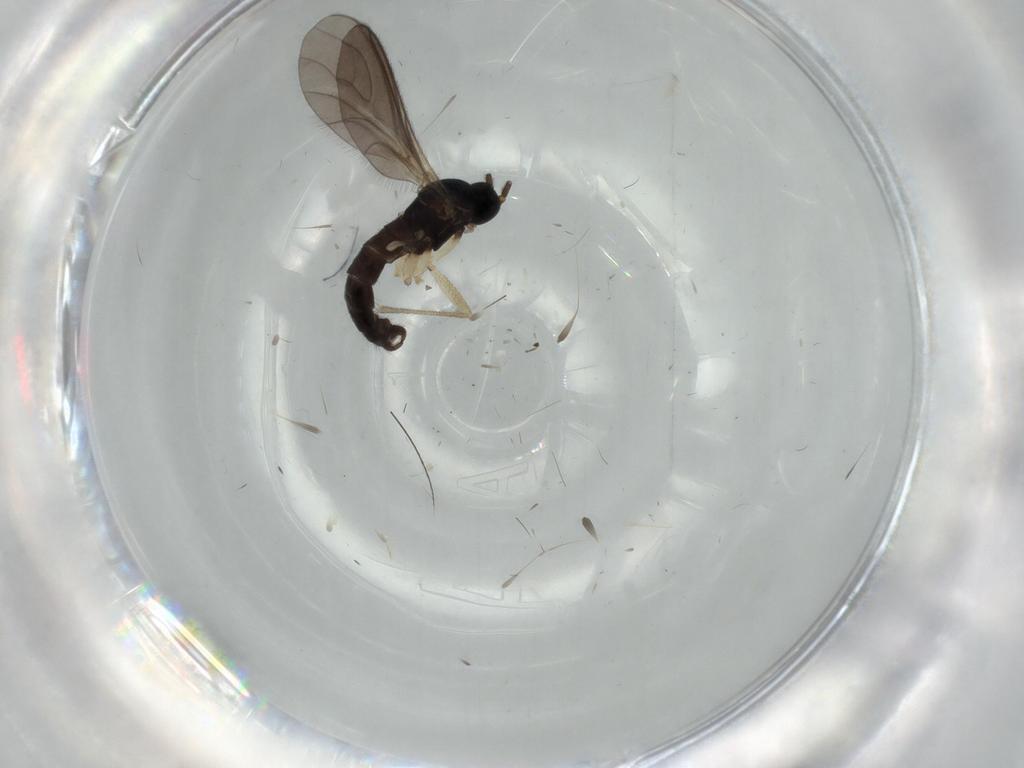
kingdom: Animalia
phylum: Arthropoda
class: Insecta
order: Diptera
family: Sciaridae
